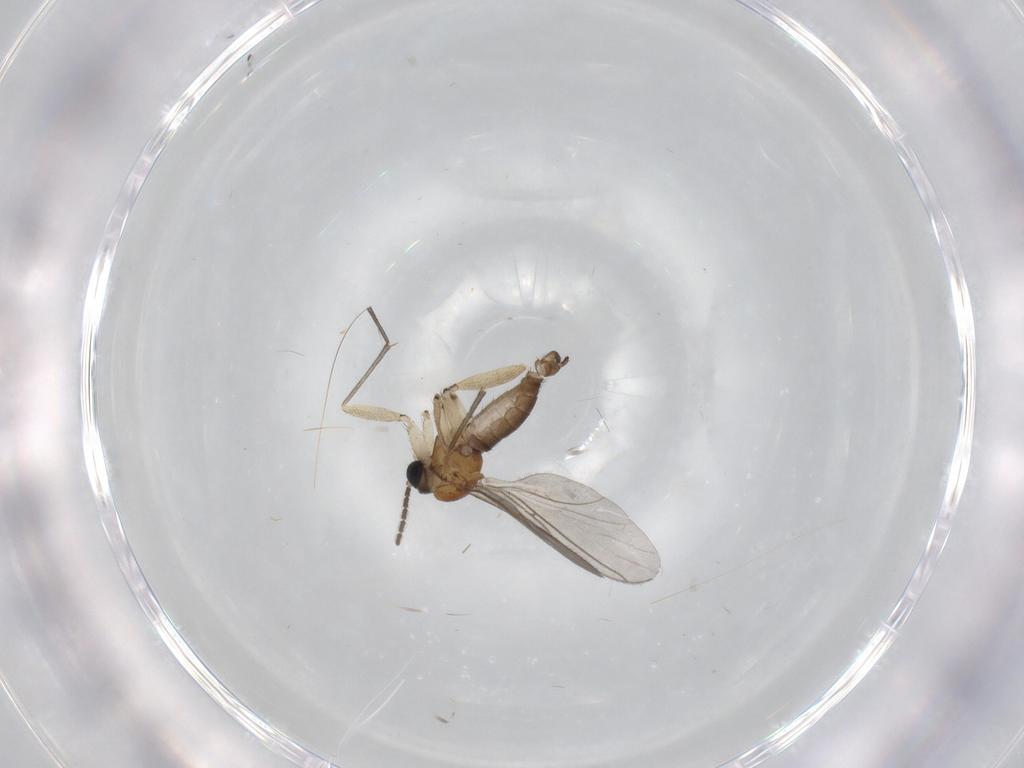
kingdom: Animalia
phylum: Arthropoda
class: Insecta
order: Diptera
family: Sciaridae
